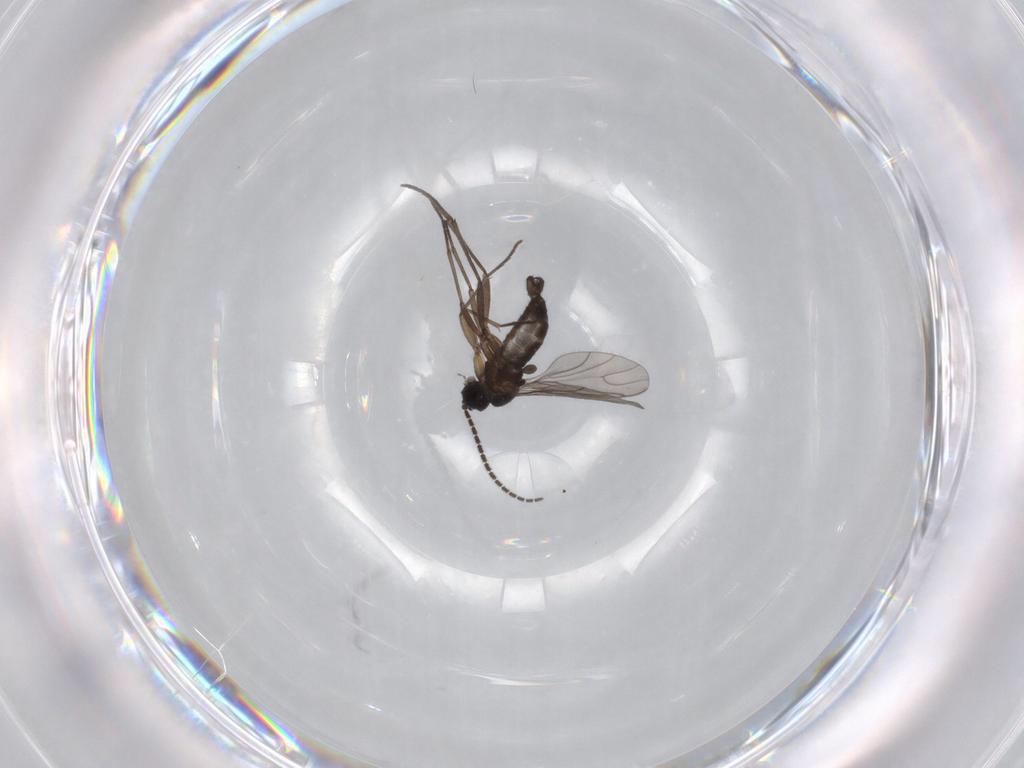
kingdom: Animalia
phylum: Arthropoda
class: Insecta
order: Diptera
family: Sciaridae
